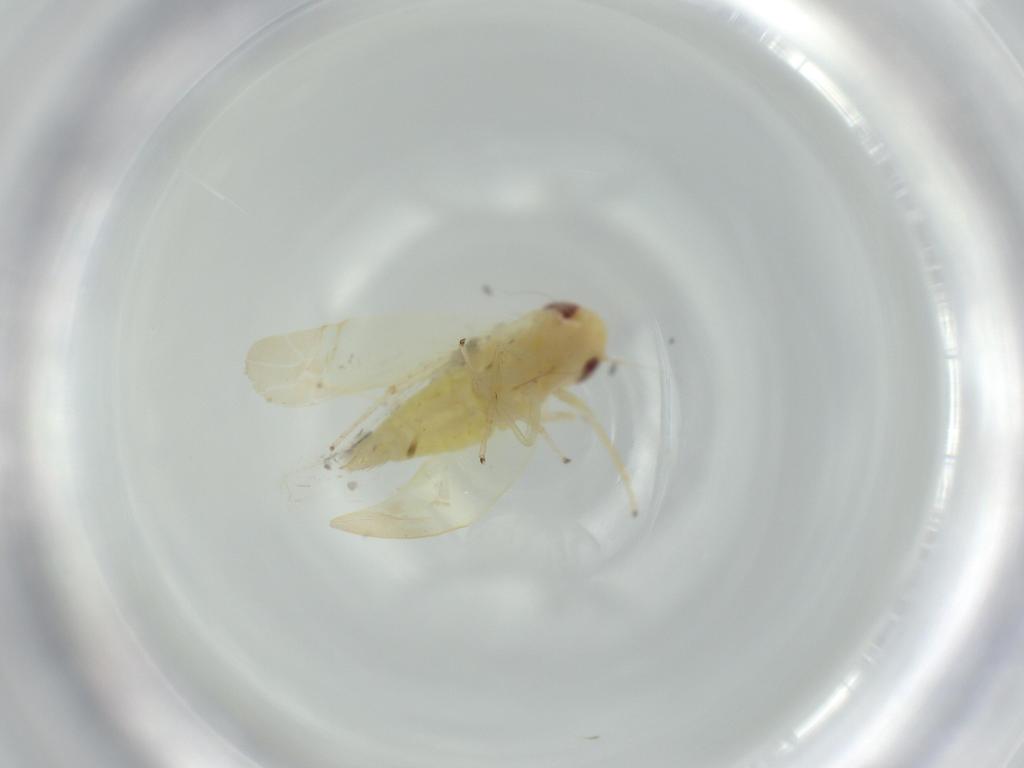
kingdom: Animalia
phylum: Arthropoda
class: Insecta
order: Hemiptera
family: Cicadellidae
